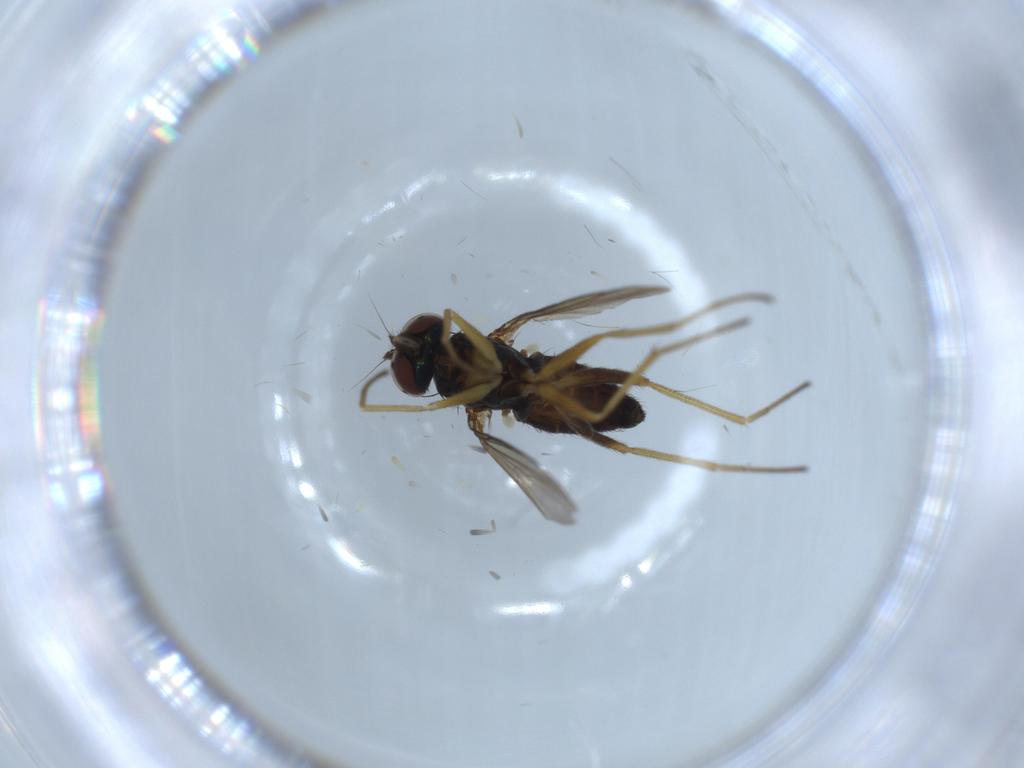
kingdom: Animalia
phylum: Arthropoda
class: Insecta
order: Diptera
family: Dolichopodidae
